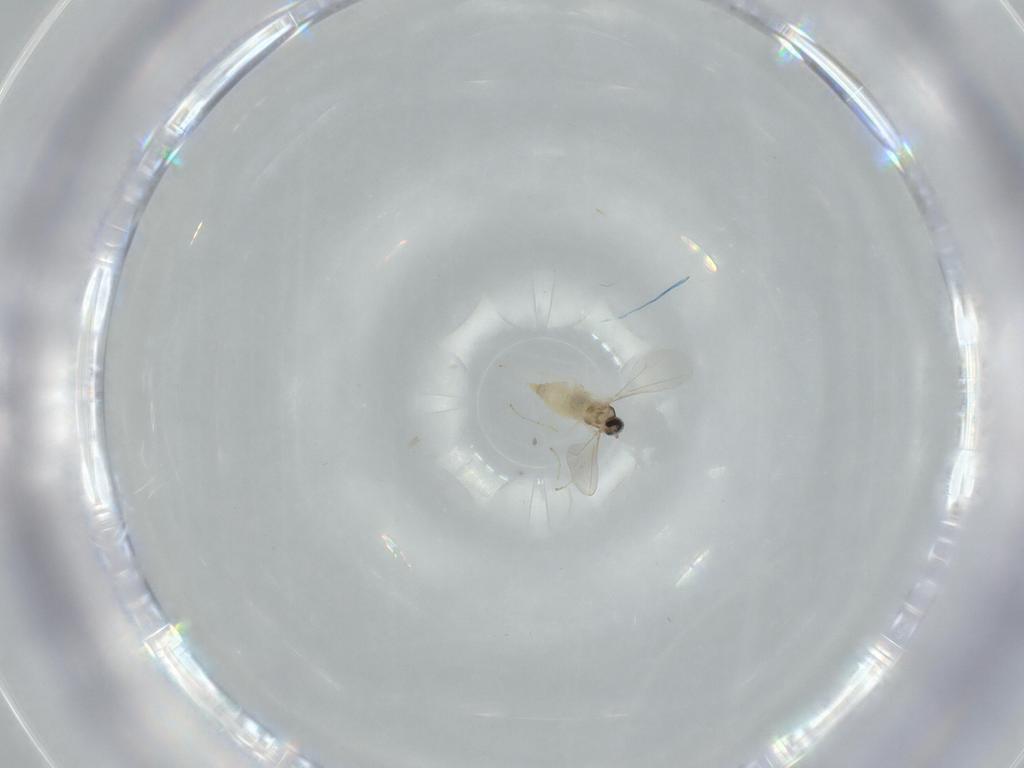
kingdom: Animalia
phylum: Arthropoda
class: Insecta
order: Diptera
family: Cecidomyiidae
